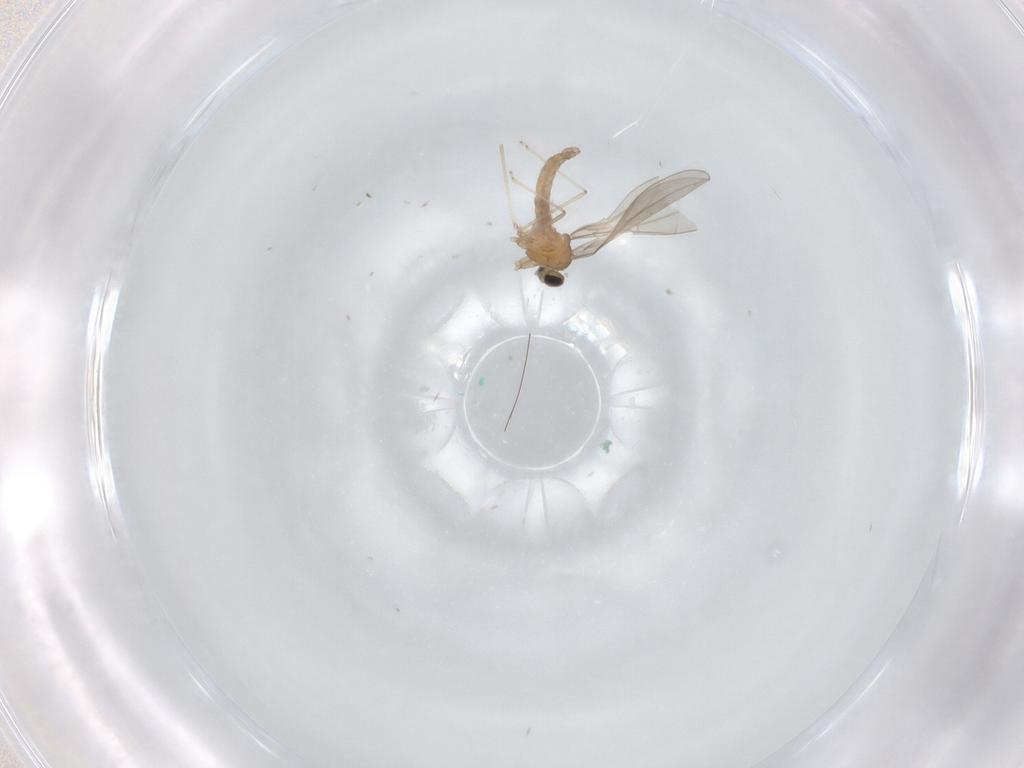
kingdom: Animalia
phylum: Arthropoda
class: Insecta
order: Diptera
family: Cecidomyiidae
